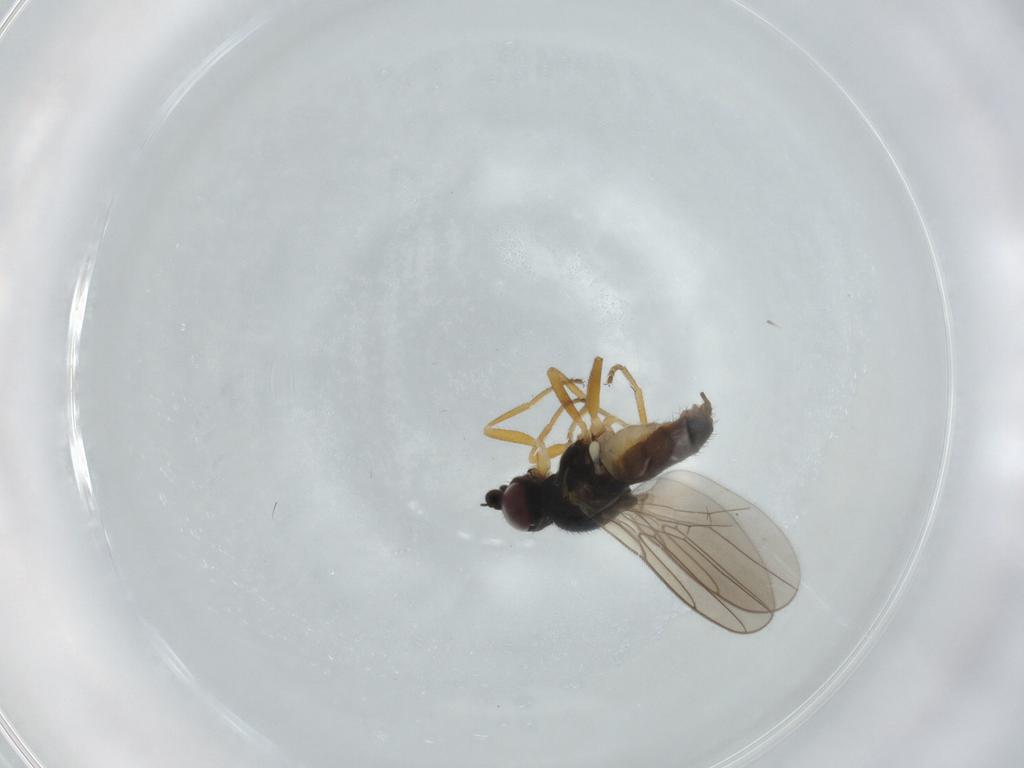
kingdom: Animalia
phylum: Arthropoda
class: Insecta
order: Diptera
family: Chloropidae
